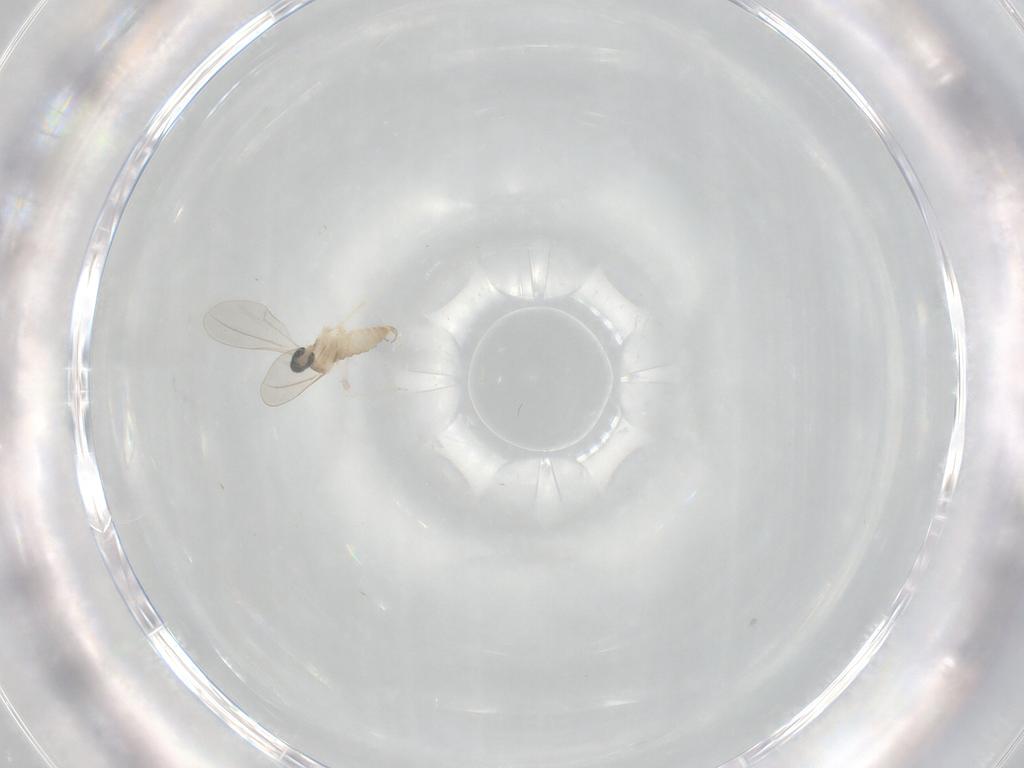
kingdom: Animalia
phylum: Arthropoda
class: Insecta
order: Diptera
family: Cecidomyiidae
